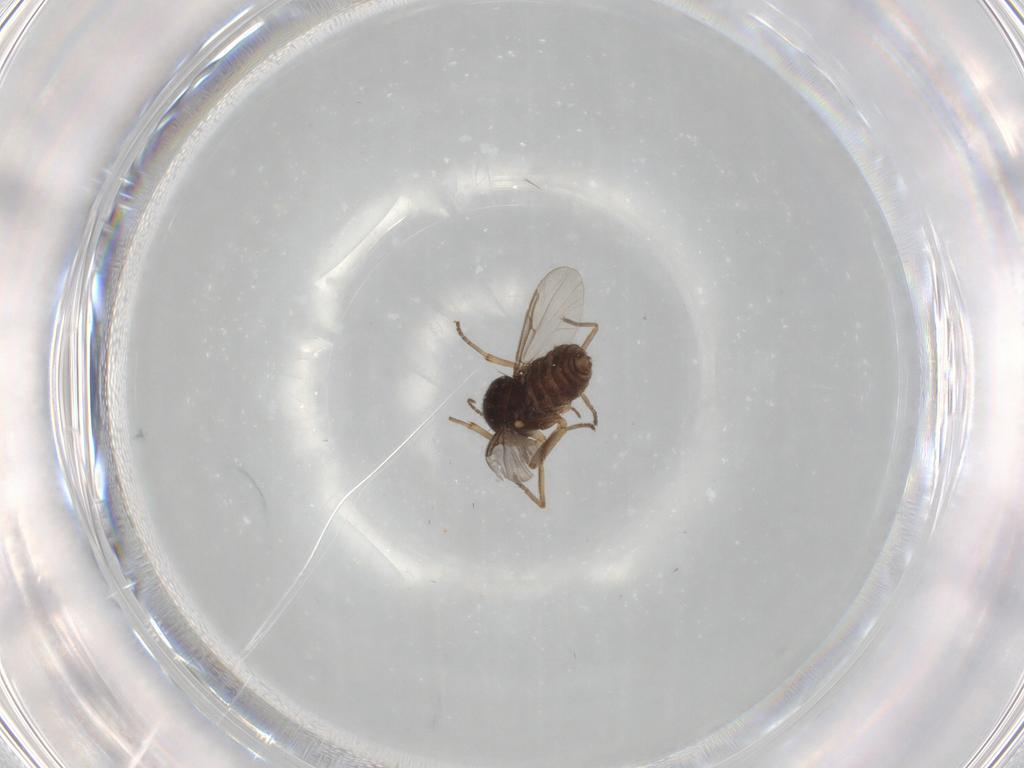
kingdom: Animalia
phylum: Arthropoda
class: Insecta
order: Diptera
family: Ceratopogonidae
